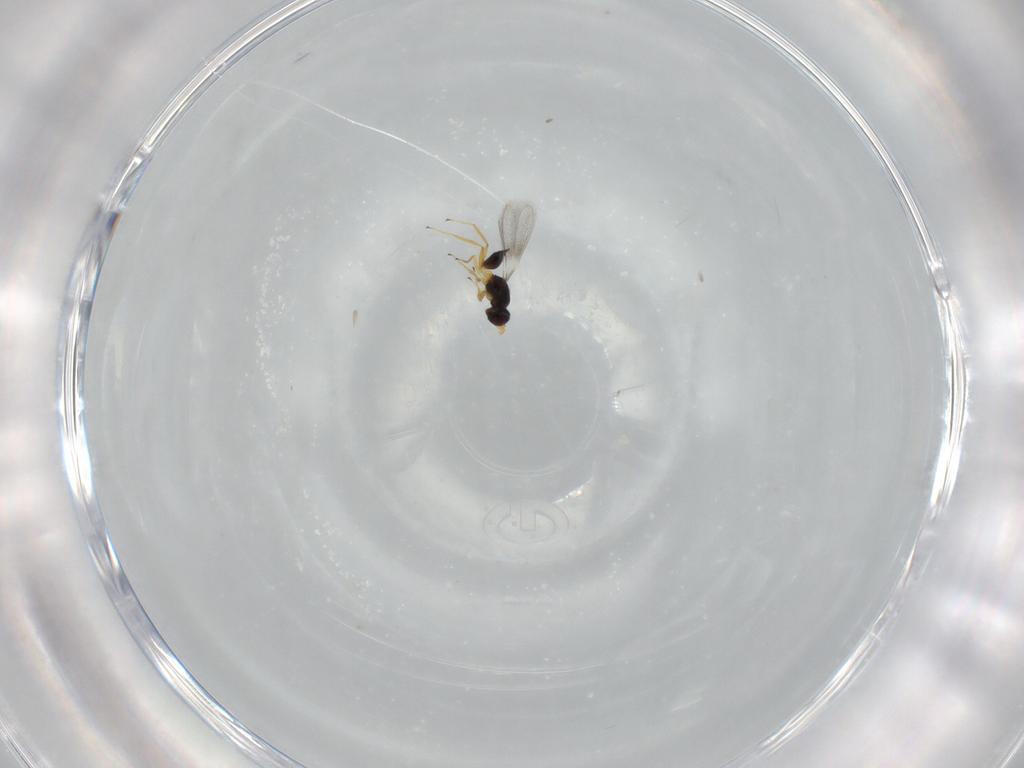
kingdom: Animalia
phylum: Arthropoda
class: Insecta
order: Hymenoptera
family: Mymaridae
